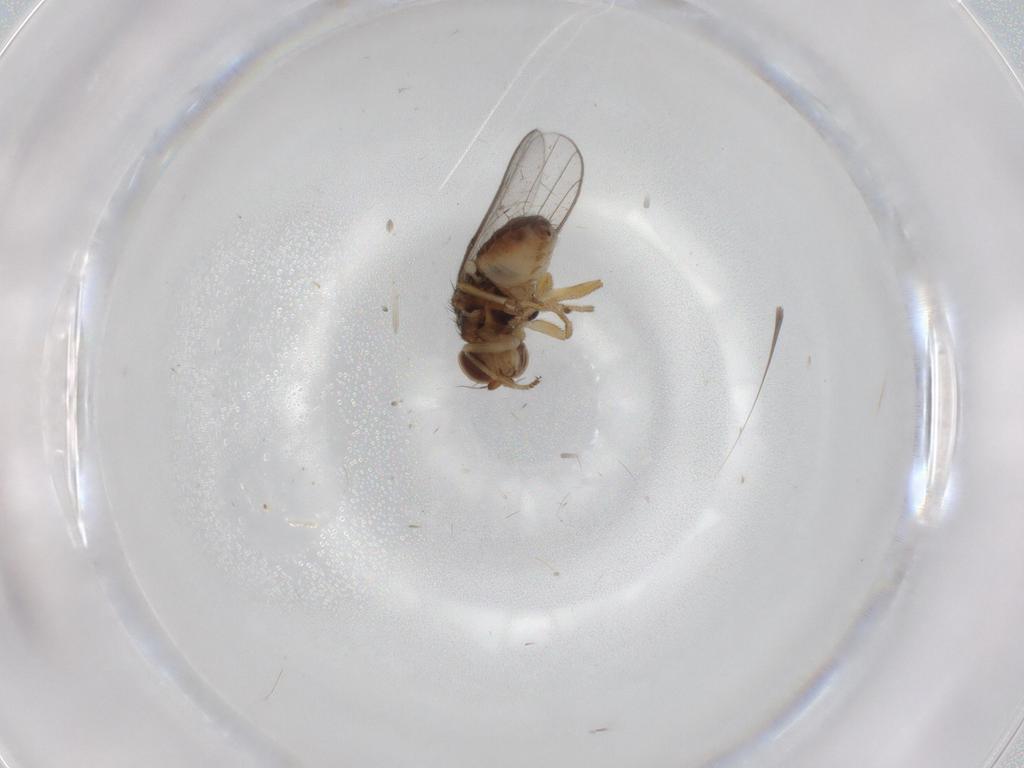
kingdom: Animalia
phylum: Arthropoda
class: Insecta
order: Diptera
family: Chloropidae
